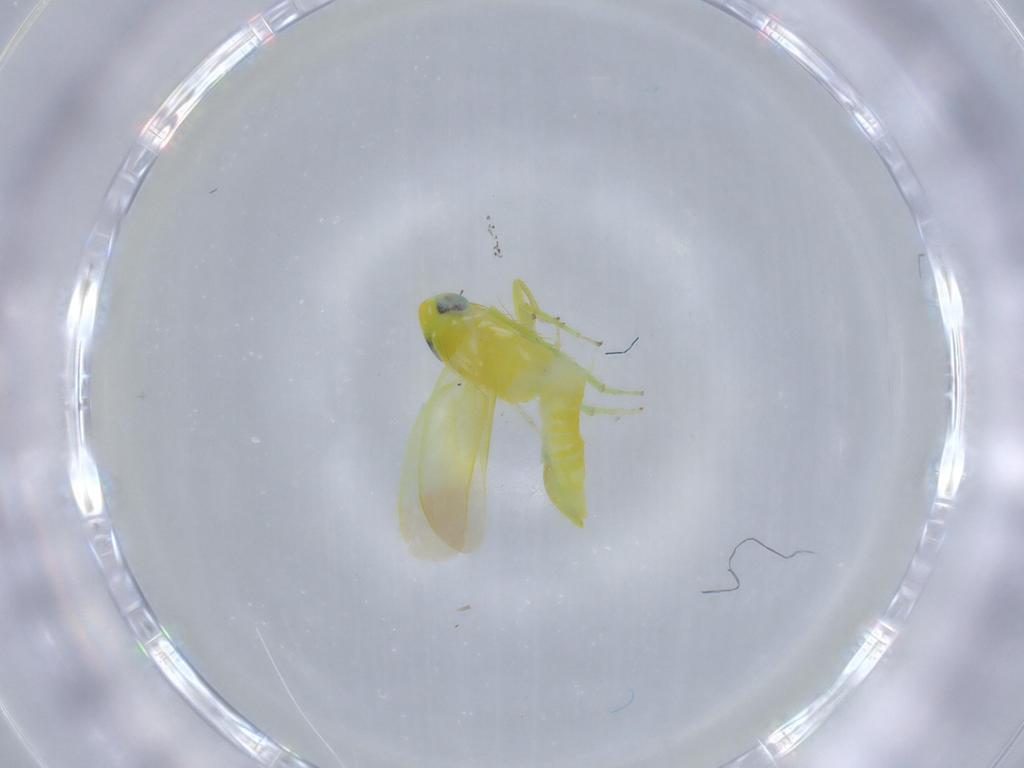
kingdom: Animalia
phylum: Arthropoda
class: Insecta
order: Hemiptera
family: Cicadellidae
